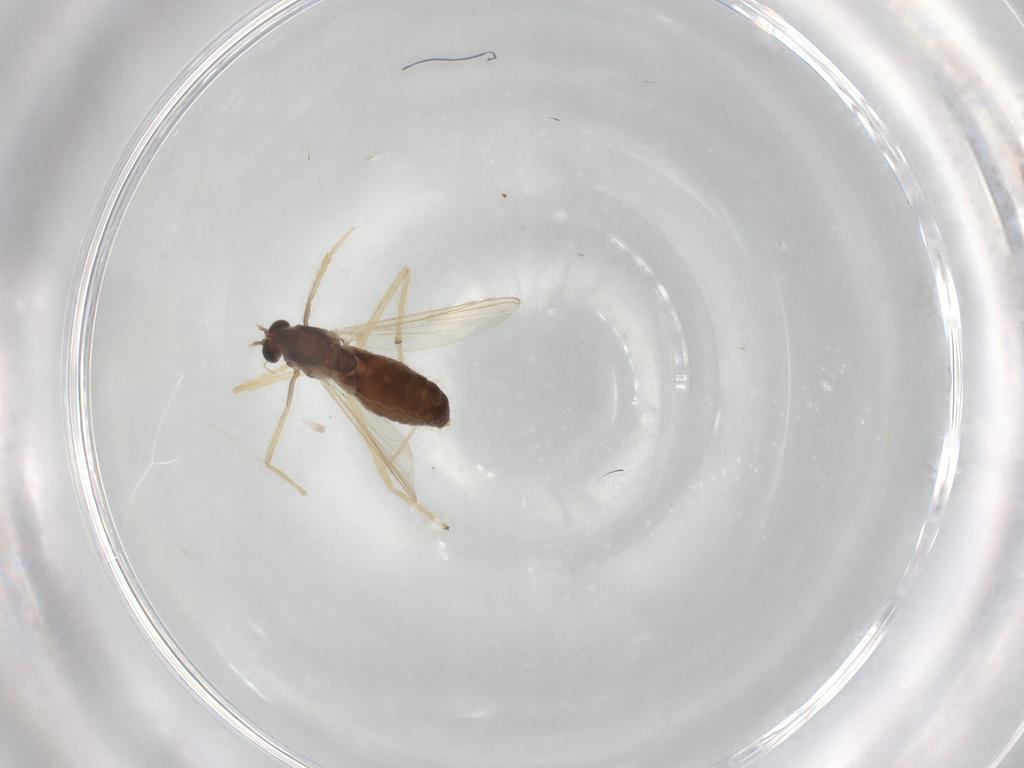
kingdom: Animalia
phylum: Arthropoda
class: Insecta
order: Diptera
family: Chironomidae
